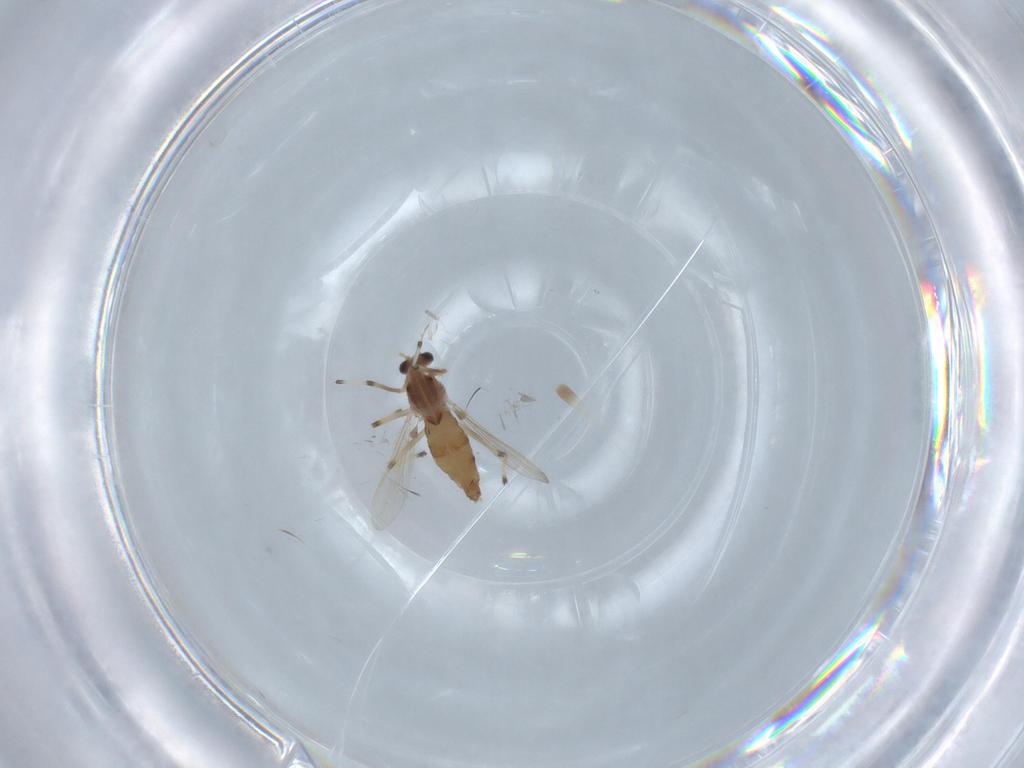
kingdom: Animalia
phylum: Arthropoda
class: Insecta
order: Diptera
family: Chironomidae
